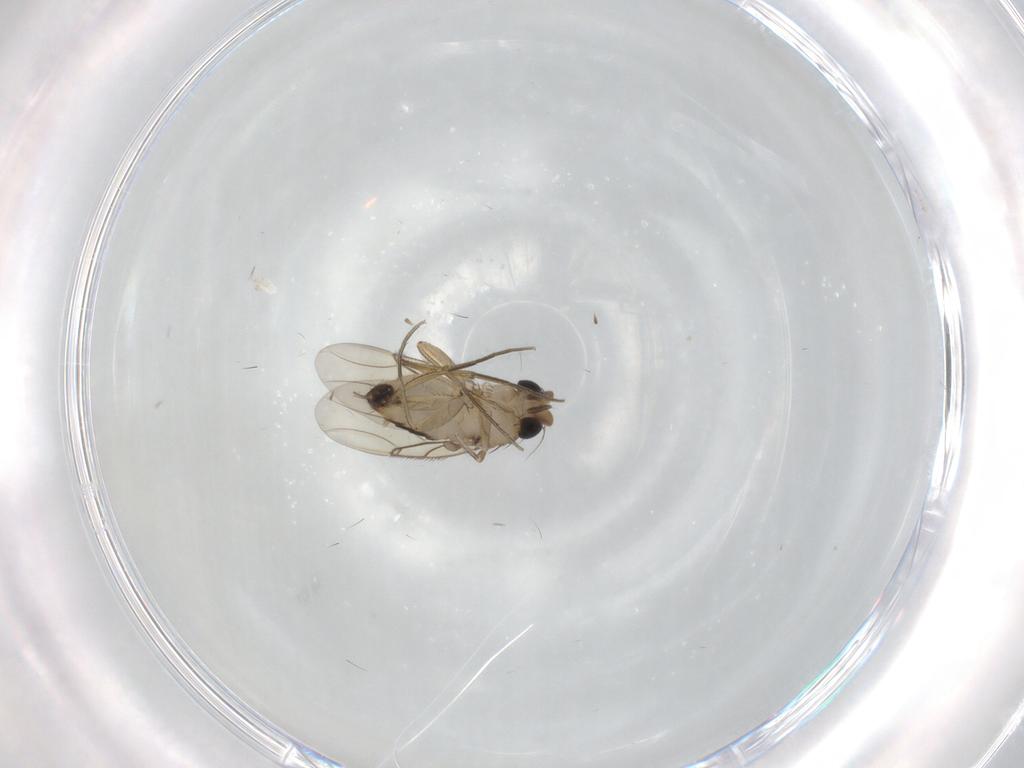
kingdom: Animalia
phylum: Arthropoda
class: Insecta
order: Diptera
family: Phoridae
